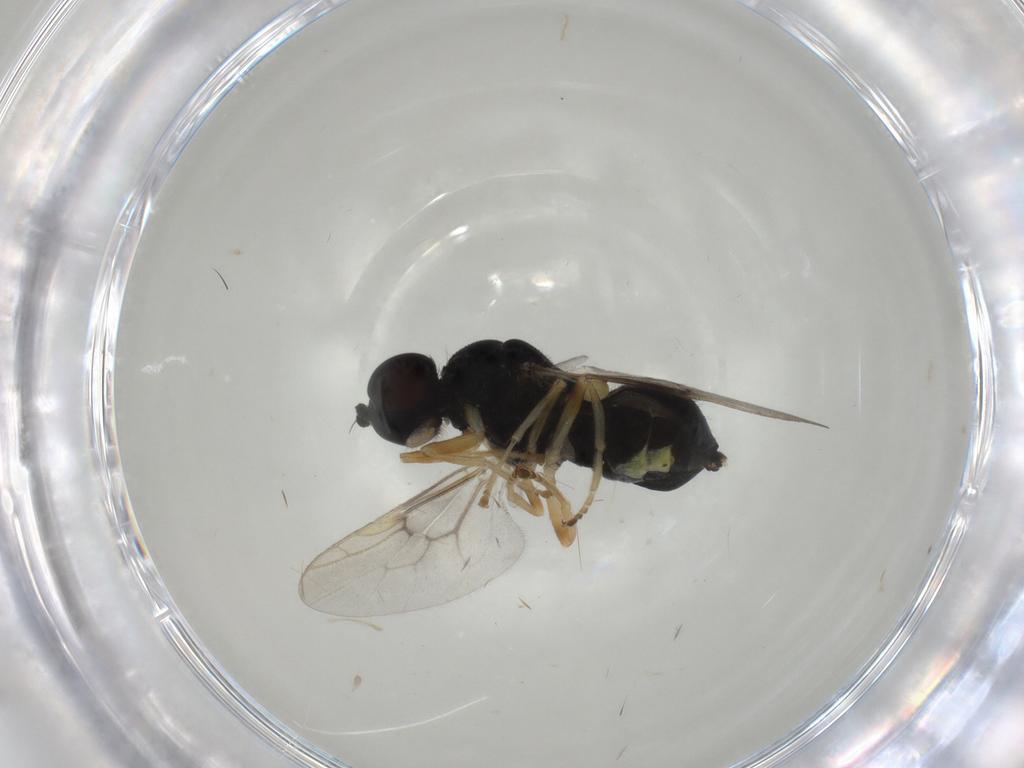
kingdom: Animalia
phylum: Arthropoda
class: Insecta
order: Diptera
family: Stratiomyidae
